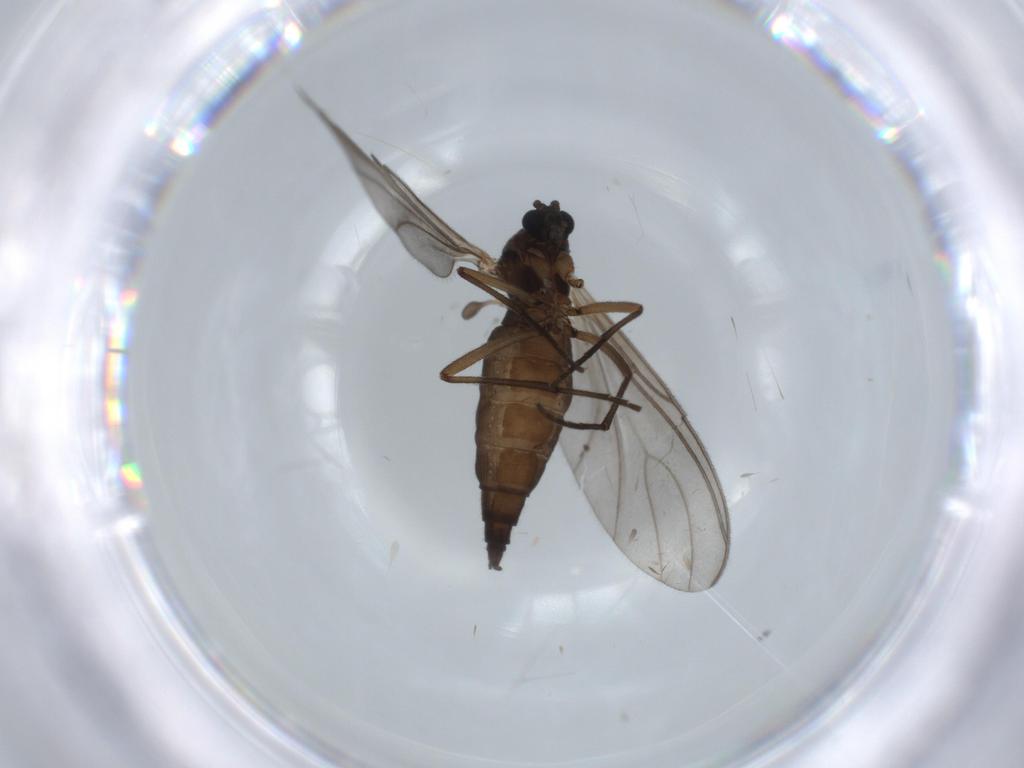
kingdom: Animalia
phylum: Arthropoda
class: Insecta
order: Diptera
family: Sciaridae
